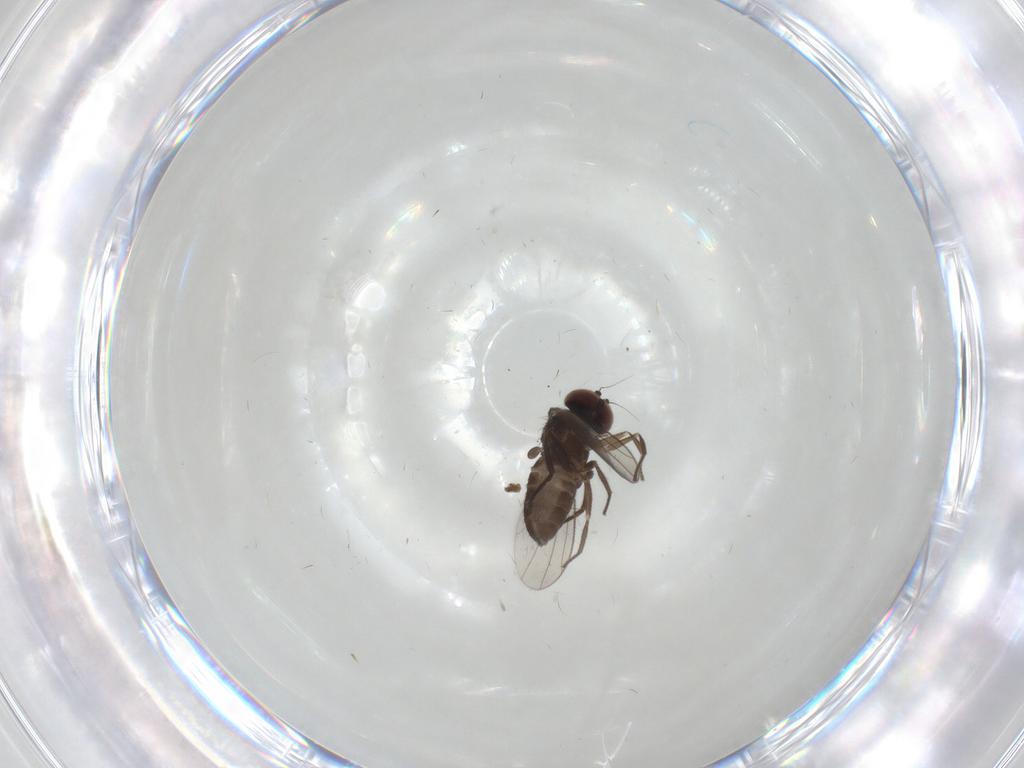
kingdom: Animalia
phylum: Arthropoda
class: Insecta
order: Diptera
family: Dolichopodidae
